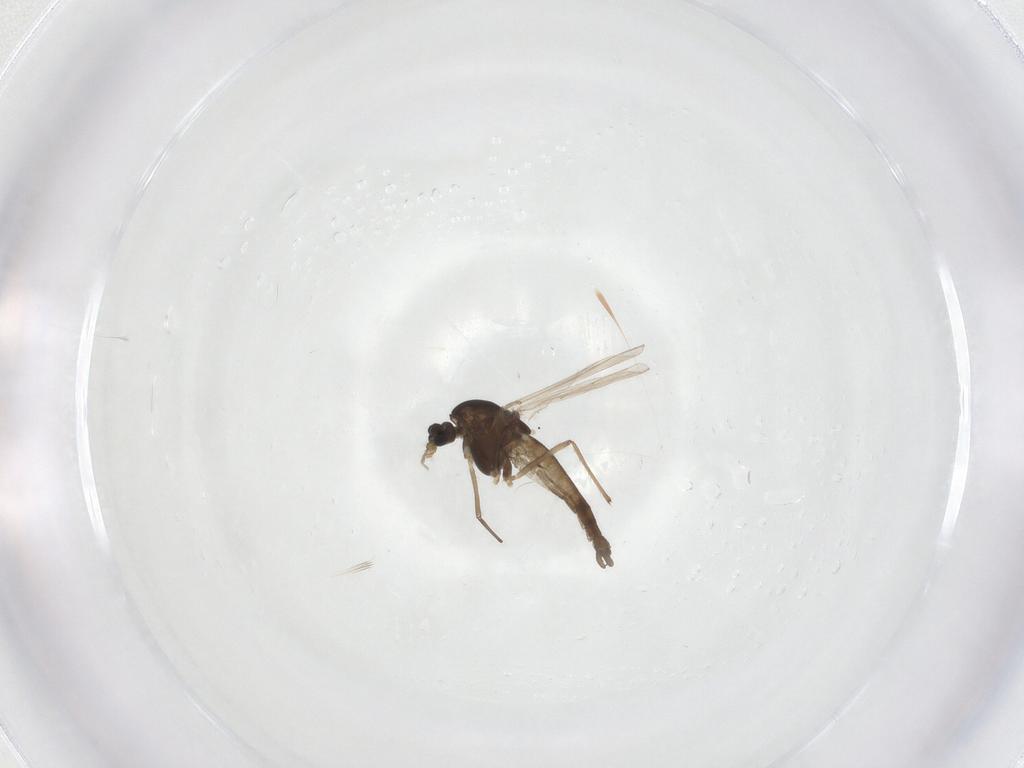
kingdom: Animalia
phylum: Arthropoda
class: Insecta
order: Diptera
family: Chironomidae
